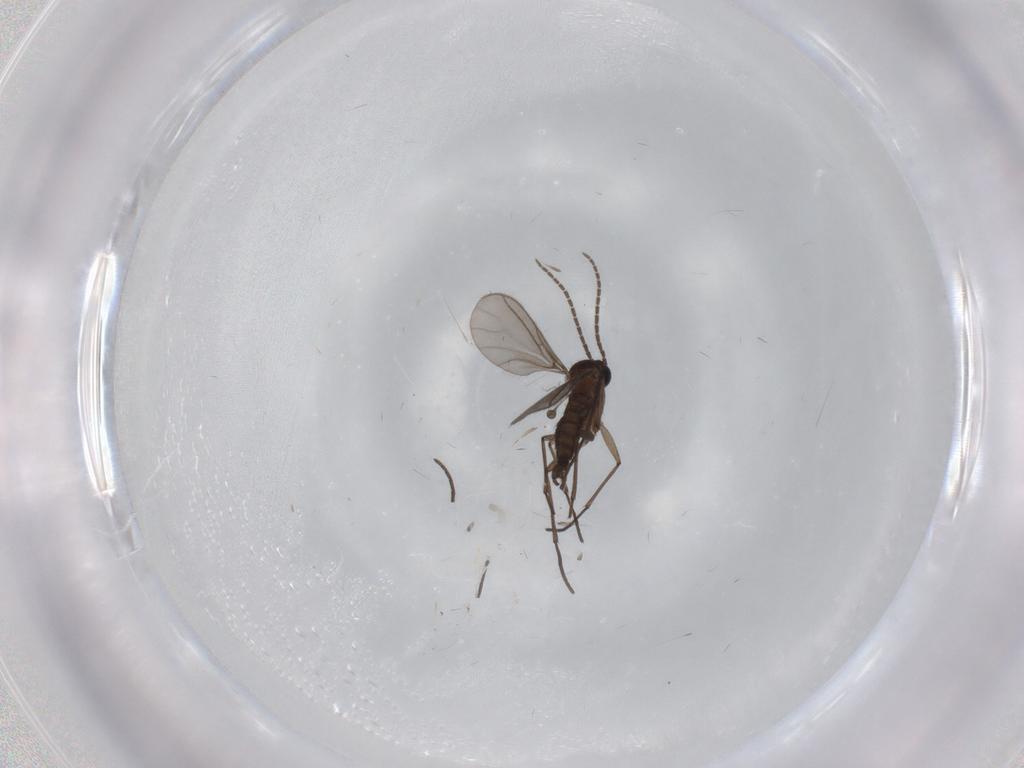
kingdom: Animalia
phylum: Arthropoda
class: Insecta
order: Diptera
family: Sciaridae
